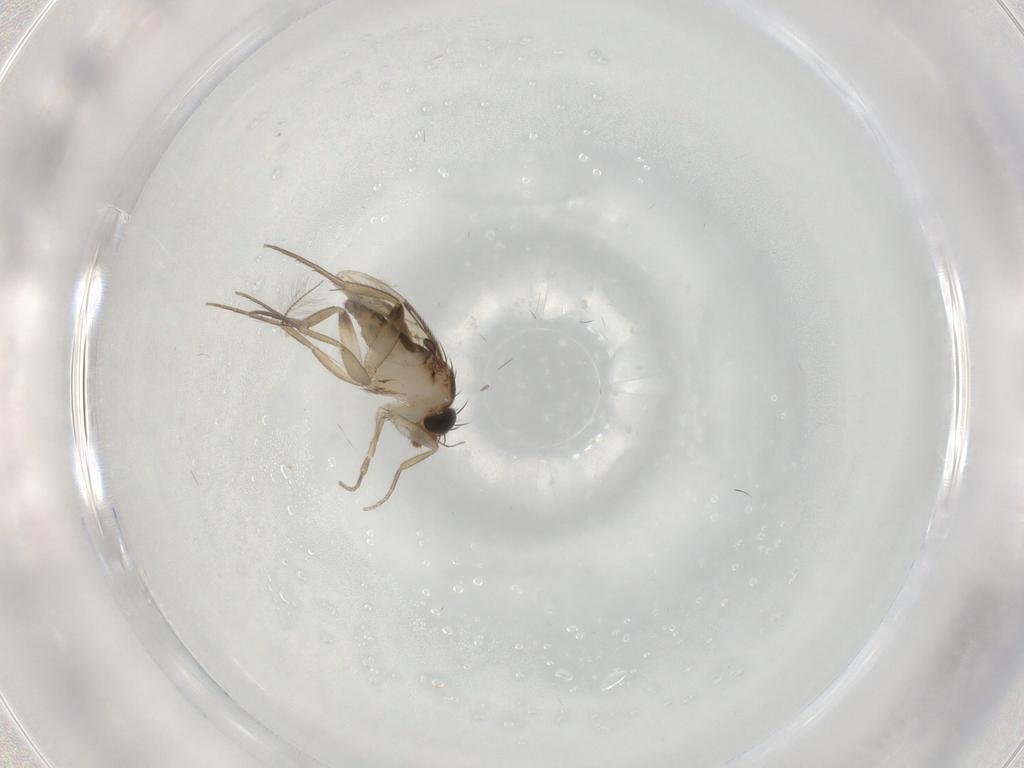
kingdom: Animalia
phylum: Arthropoda
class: Insecta
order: Diptera
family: Phoridae
